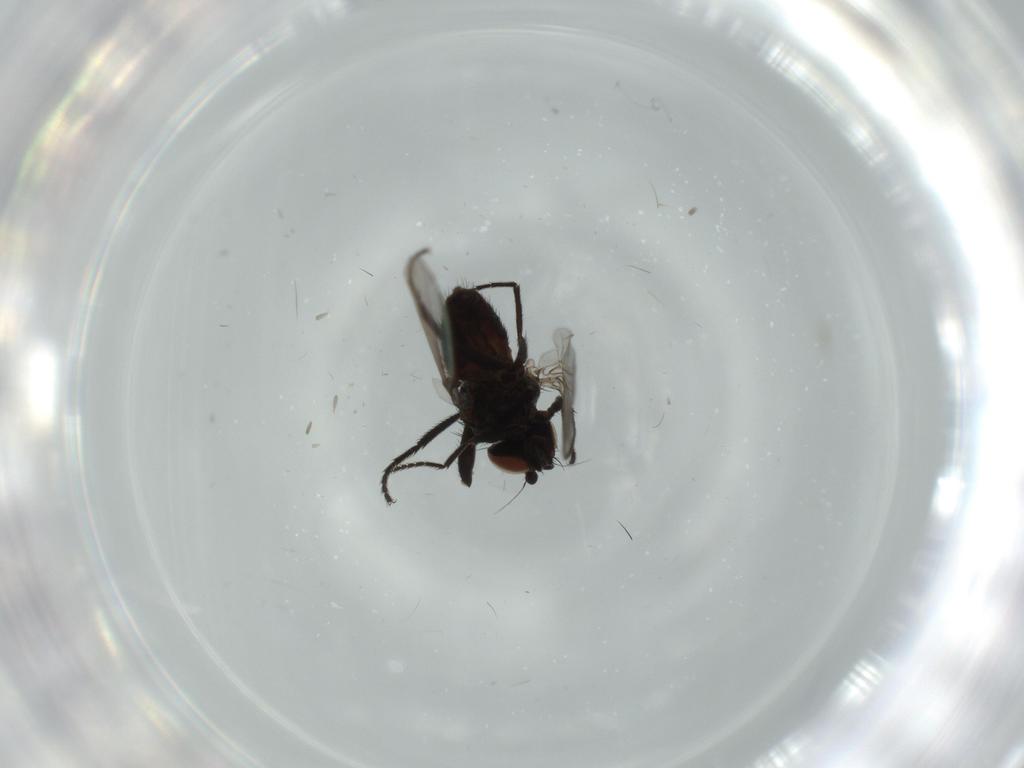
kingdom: Animalia
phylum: Arthropoda
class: Insecta
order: Diptera
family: Milichiidae
